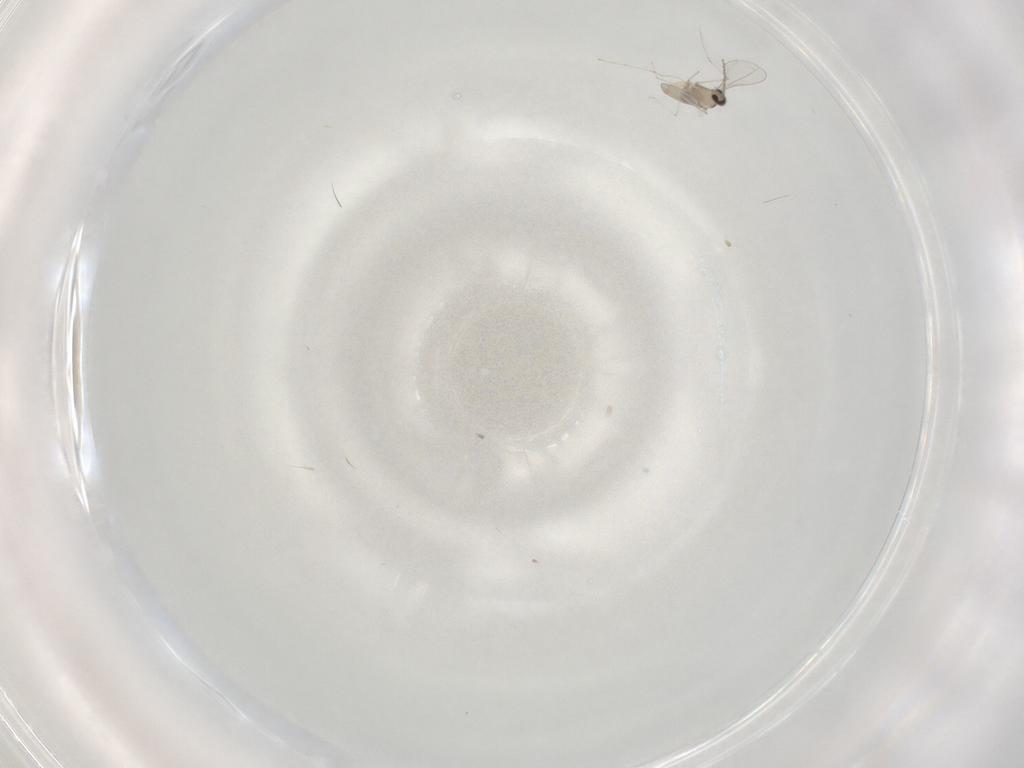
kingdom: Animalia
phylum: Arthropoda
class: Insecta
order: Diptera
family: Cecidomyiidae
